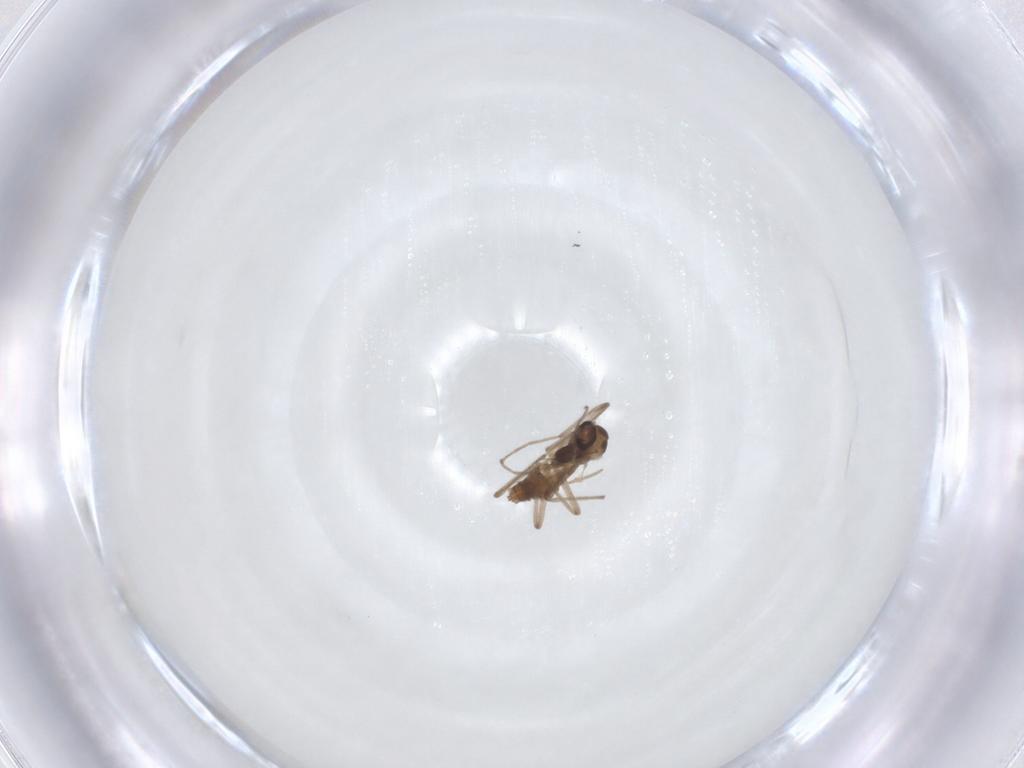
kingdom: Animalia
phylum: Arthropoda
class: Insecta
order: Diptera
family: Chironomidae
